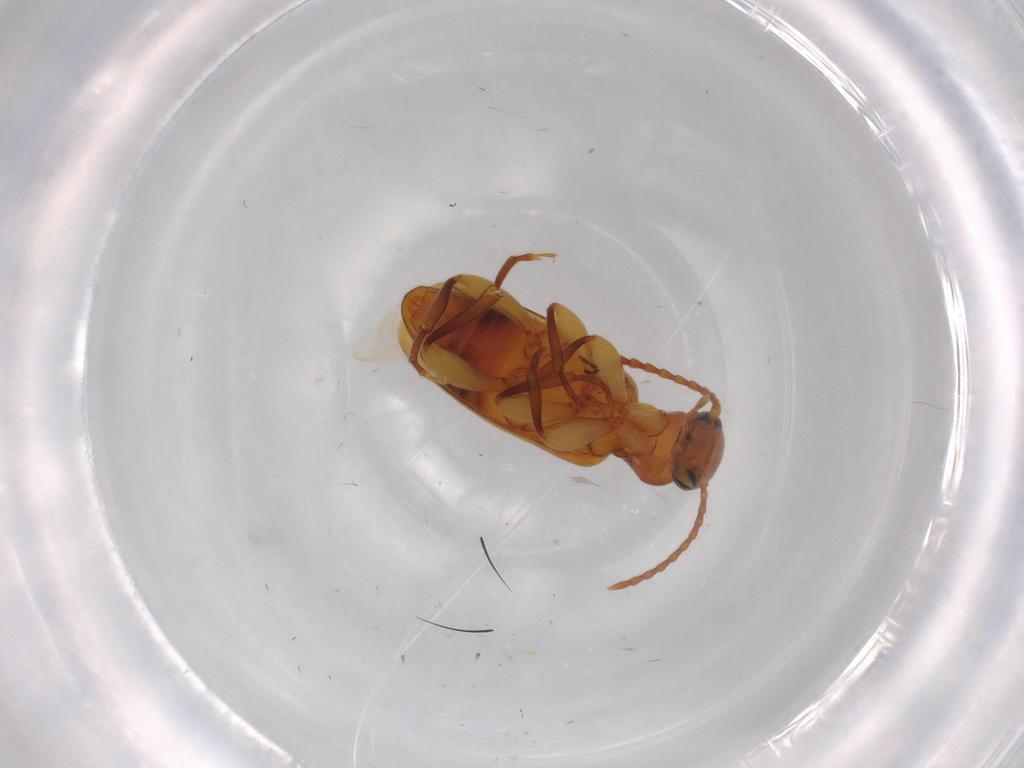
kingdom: Animalia
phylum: Arthropoda
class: Insecta
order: Coleoptera
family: Anthicidae
